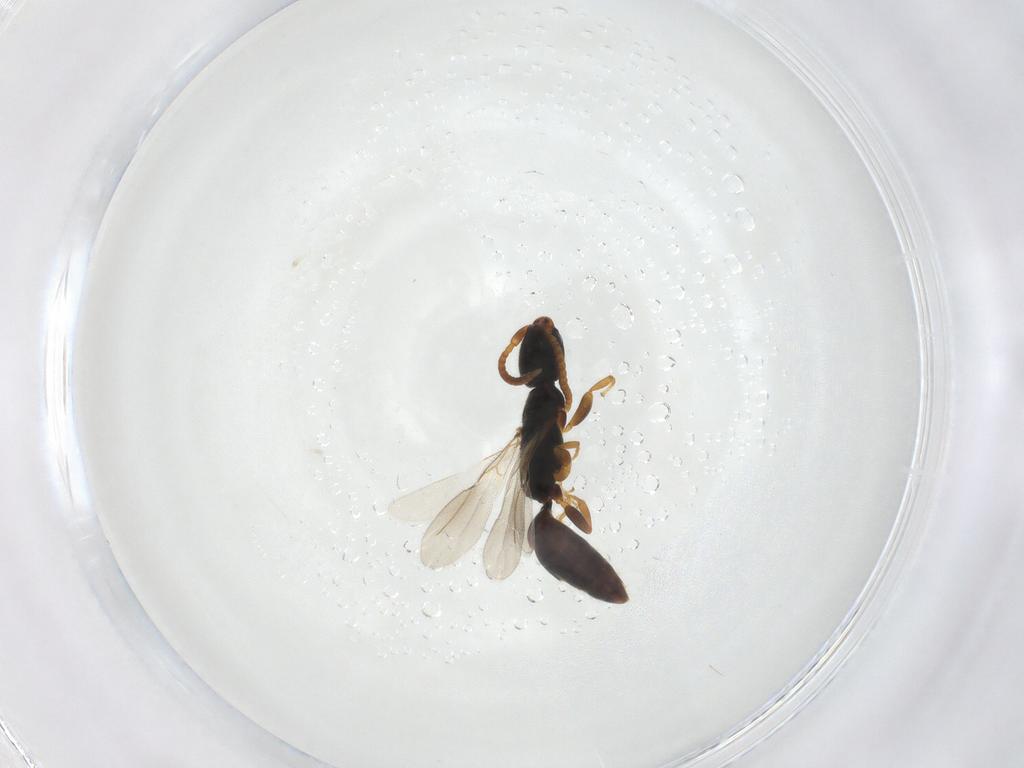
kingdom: Animalia
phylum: Arthropoda
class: Insecta
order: Hymenoptera
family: Bethylidae
